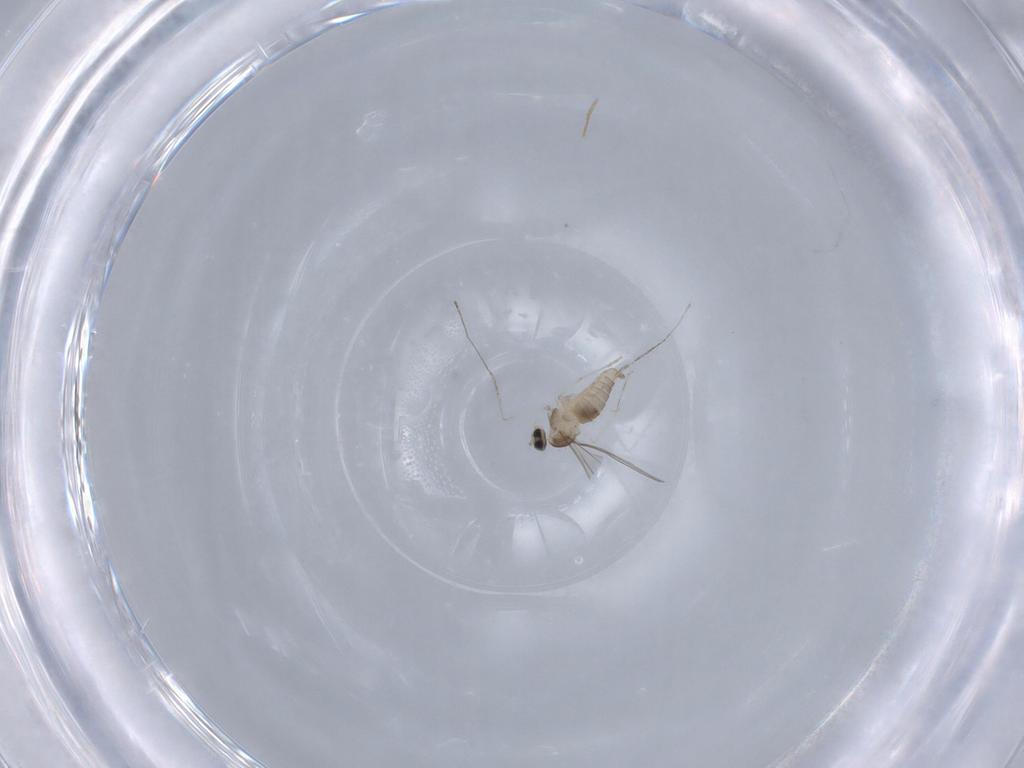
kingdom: Animalia
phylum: Arthropoda
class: Insecta
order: Diptera
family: Cecidomyiidae
